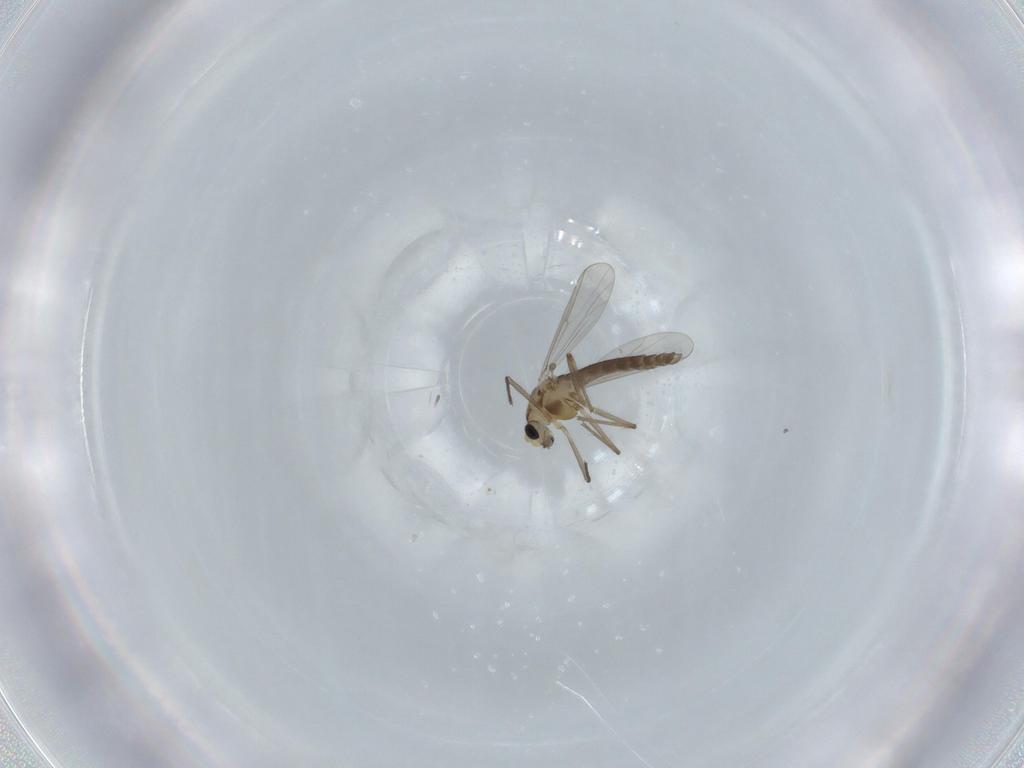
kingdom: Animalia
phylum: Arthropoda
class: Insecta
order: Diptera
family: Chironomidae
